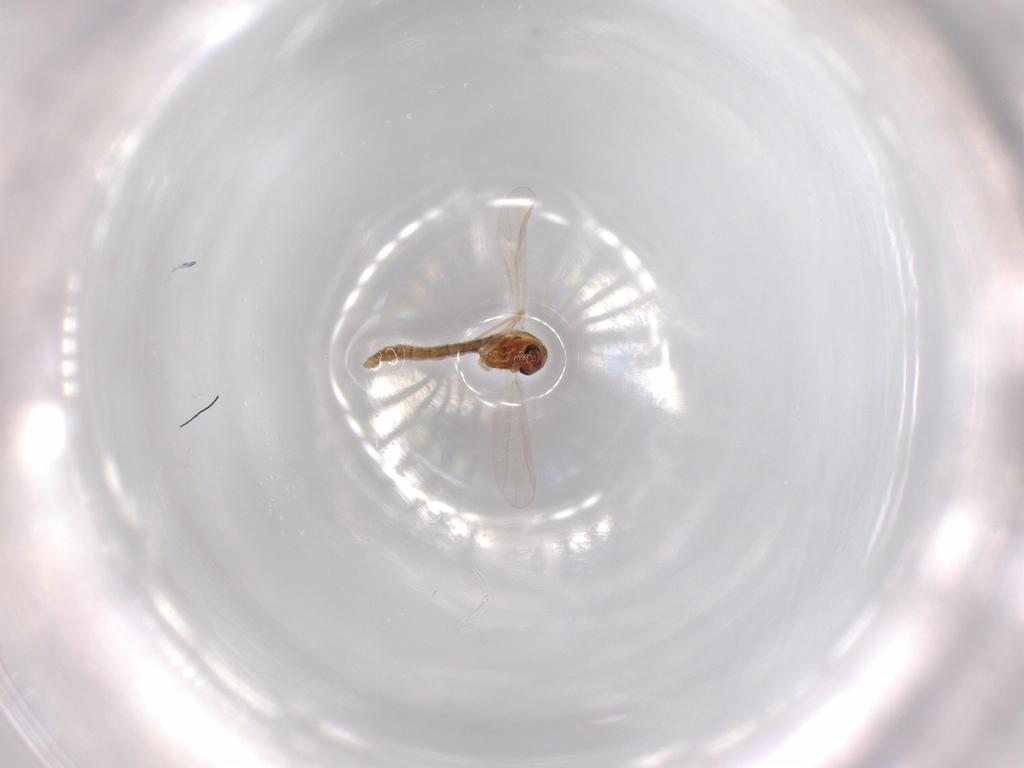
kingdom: Animalia
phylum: Arthropoda
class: Insecta
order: Diptera
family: Chironomidae
